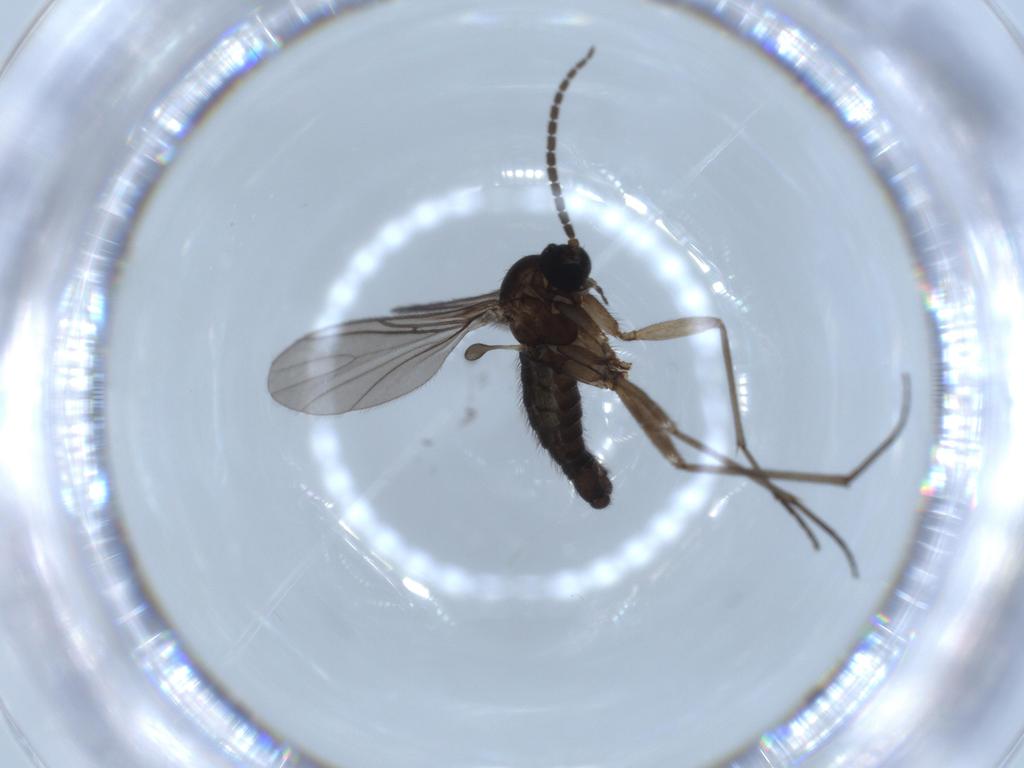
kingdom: Animalia
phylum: Arthropoda
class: Insecta
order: Diptera
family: Sciaridae
